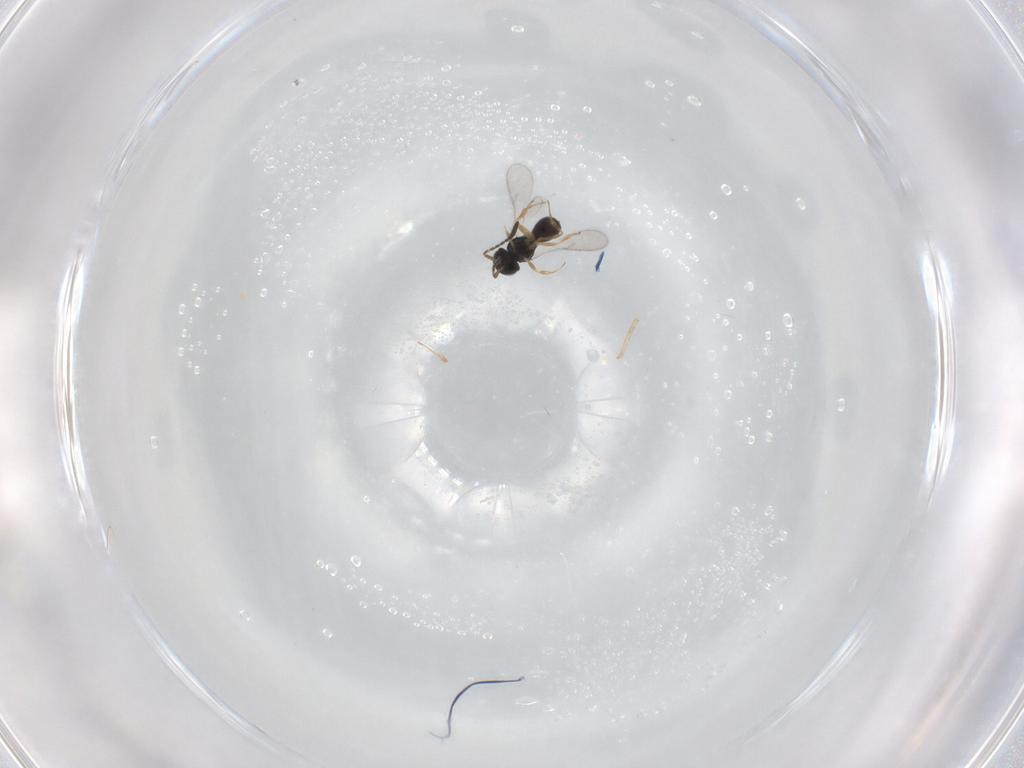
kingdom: Animalia
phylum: Arthropoda
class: Insecta
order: Hymenoptera
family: Scelionidae
